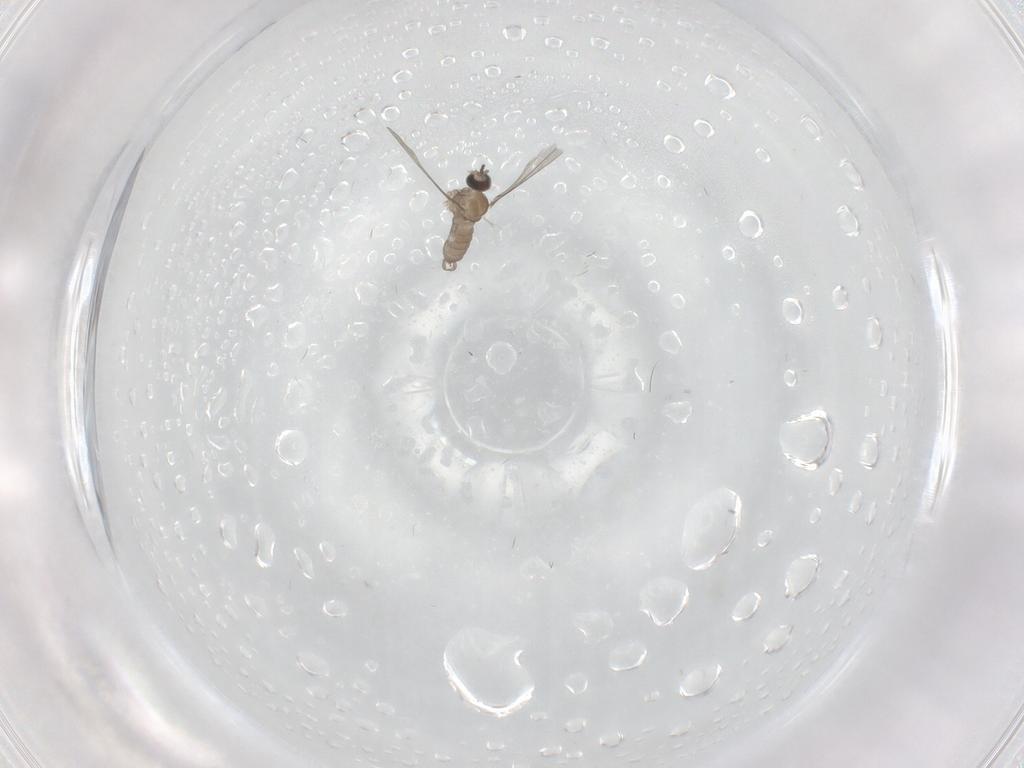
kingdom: Animalia
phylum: Arthropoda
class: Insecta
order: Diptera
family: Cecidomyiidae
